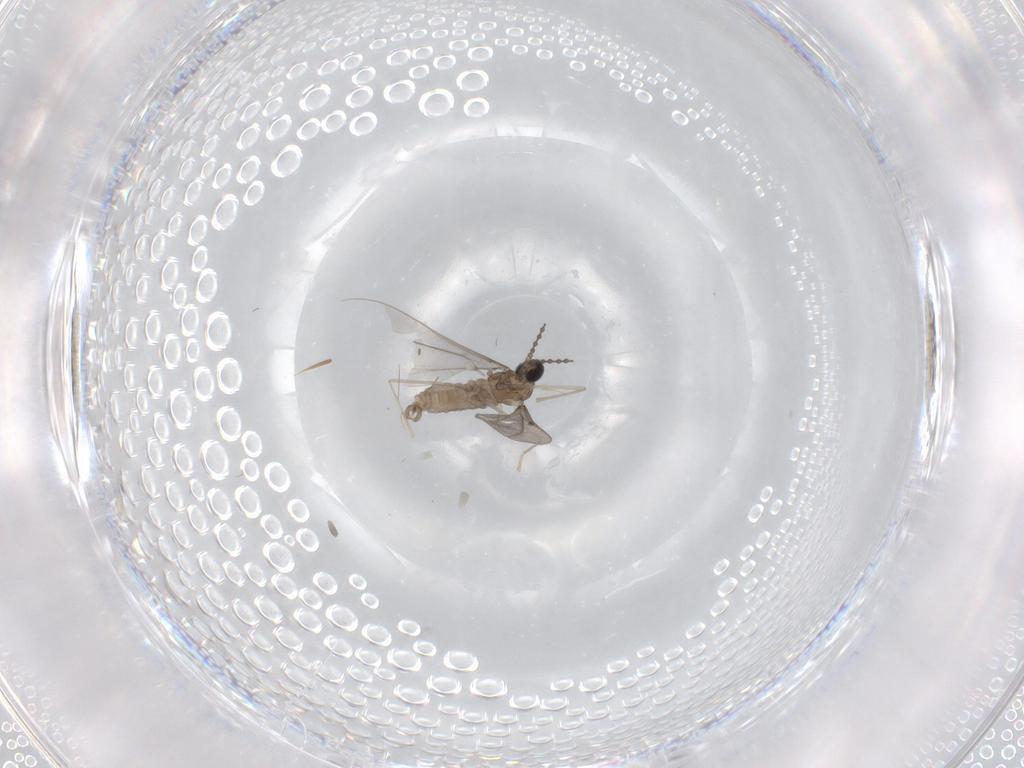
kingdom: Animalia
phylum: Arthropoda
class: Insecta
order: Diptera
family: Cecidomyiidae
